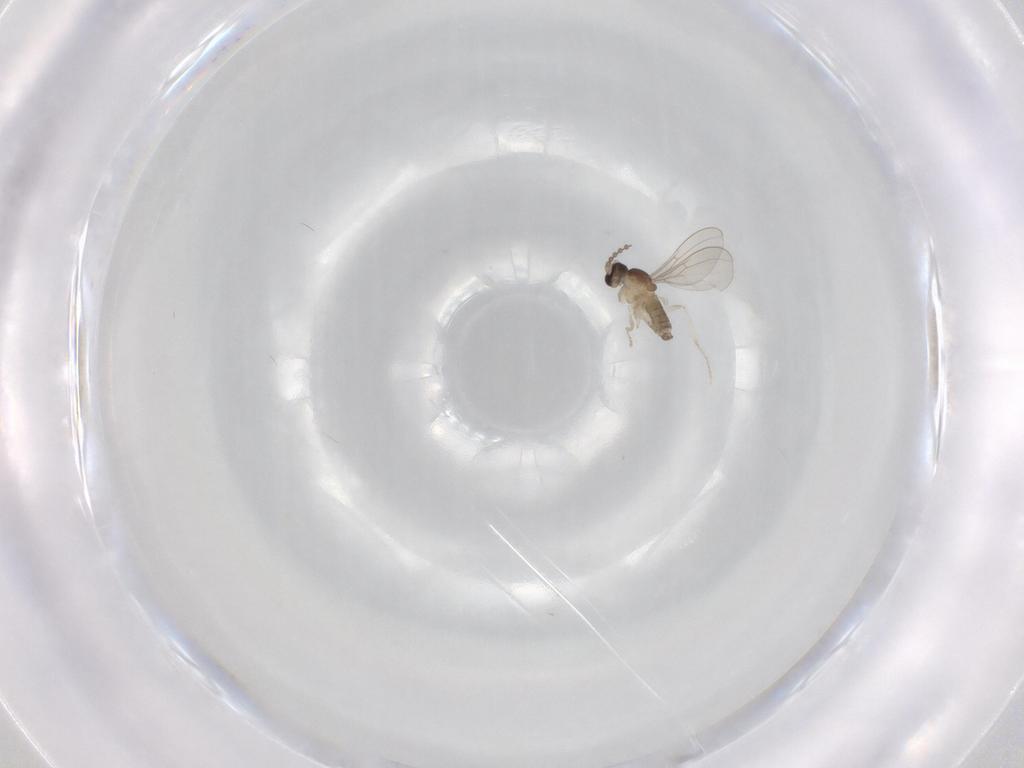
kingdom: Animalia
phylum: Arthropoda
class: Insecta
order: Diptera
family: Cecidomyiidae
